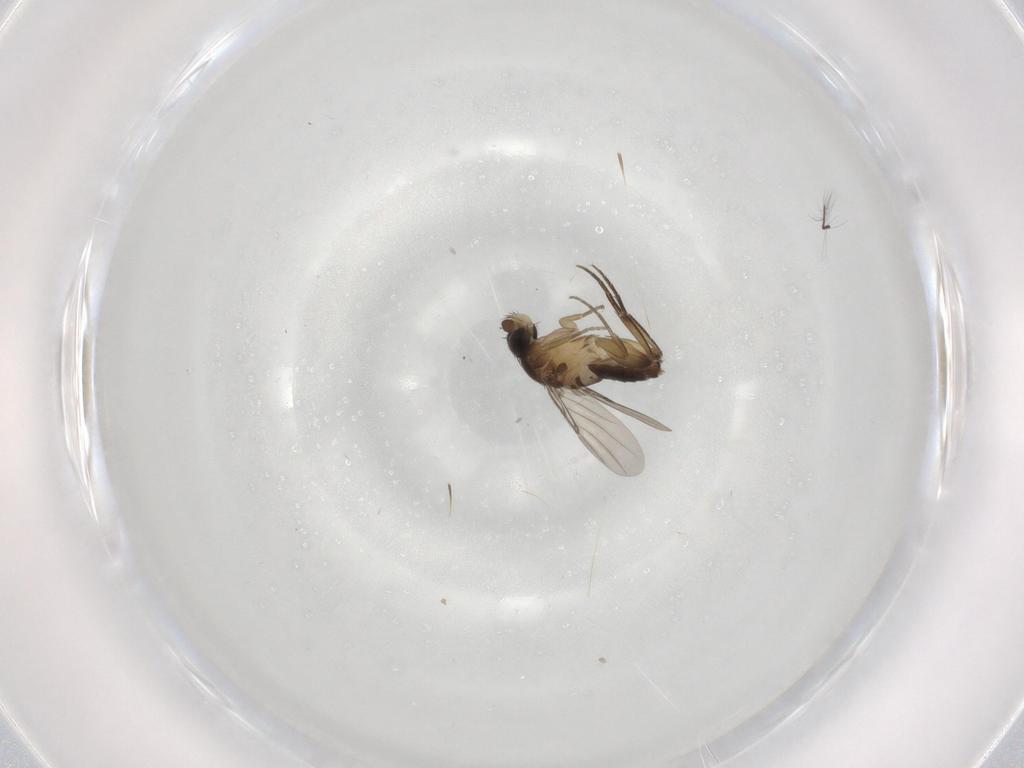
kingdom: Animalia
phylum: Arthropoda
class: Insecta
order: Diptera
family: Phoridae
